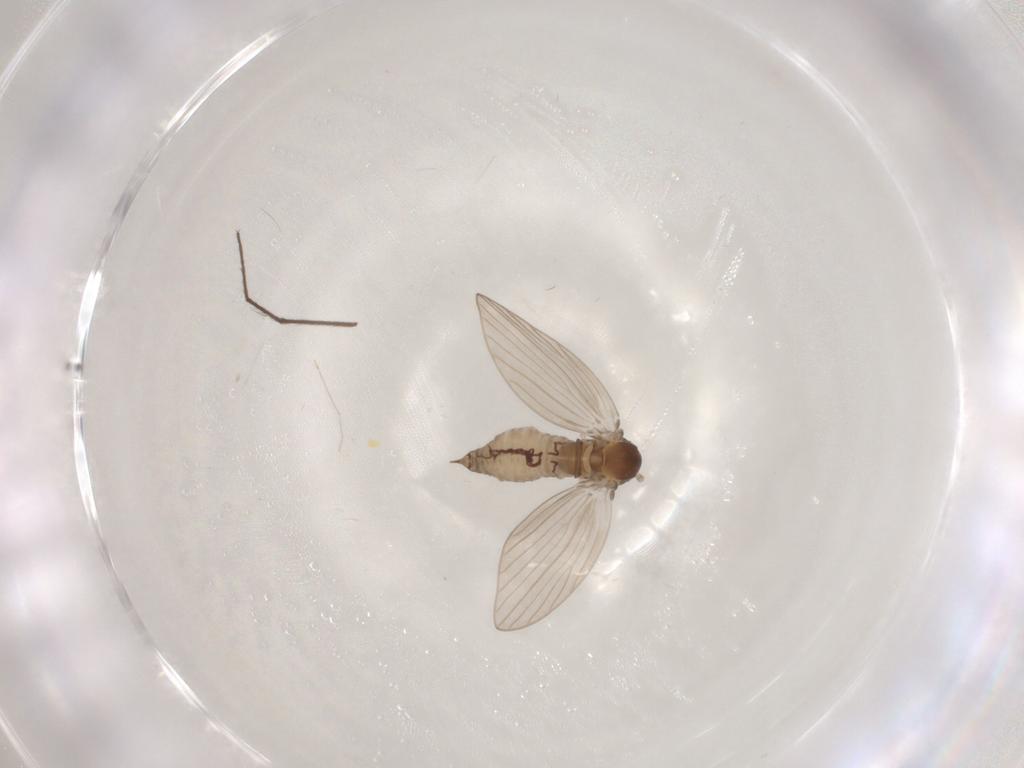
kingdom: Animalia
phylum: Arthropoda
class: Insecta
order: Diptera
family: Psychodidae
